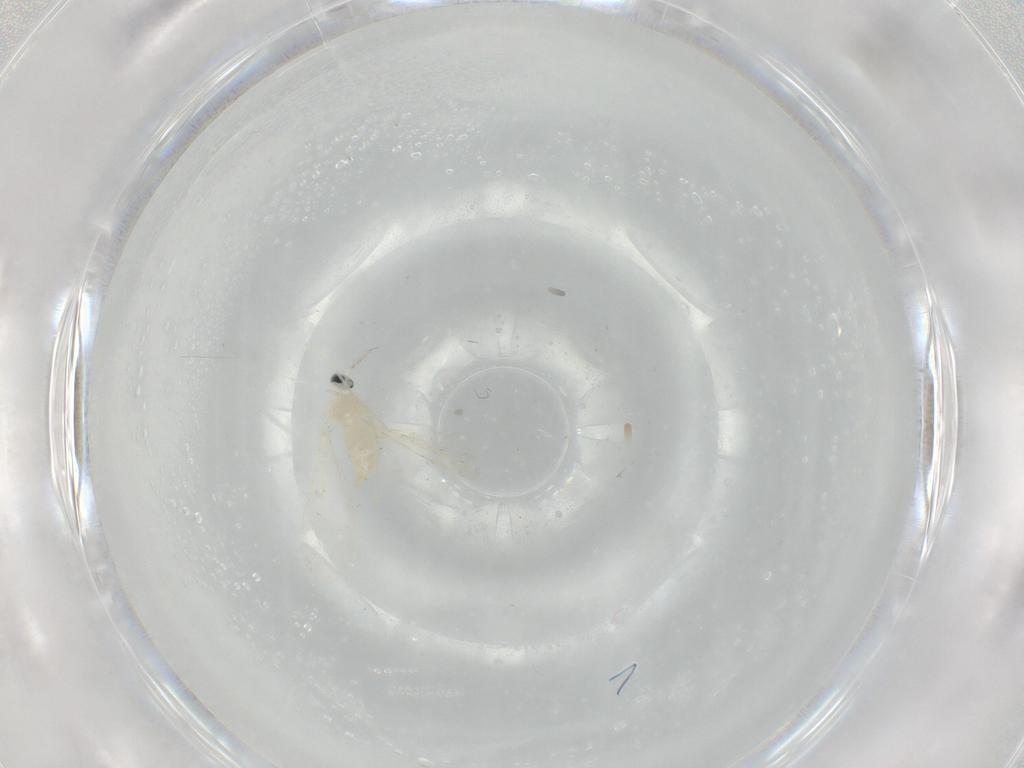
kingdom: Animalia
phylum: Arthropoda
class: Insecta
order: Diptera
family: Cecidomyiidae
